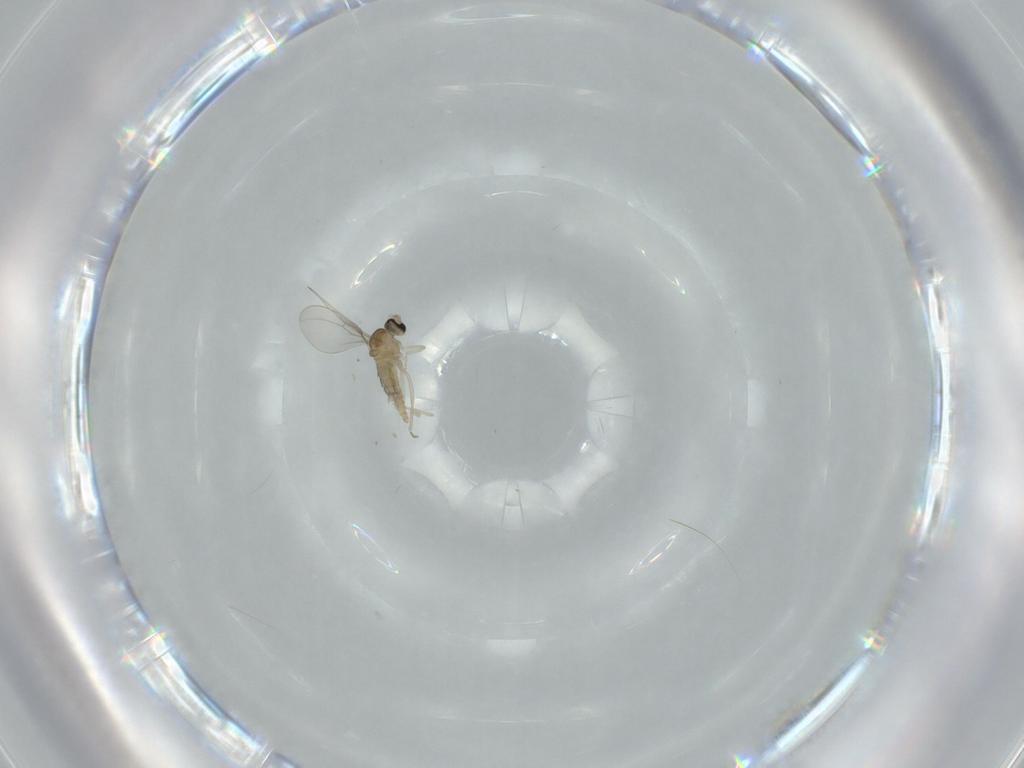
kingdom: Animalia
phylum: Arthropoda
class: Insecta
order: Diptera
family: Cecidomyiidae
